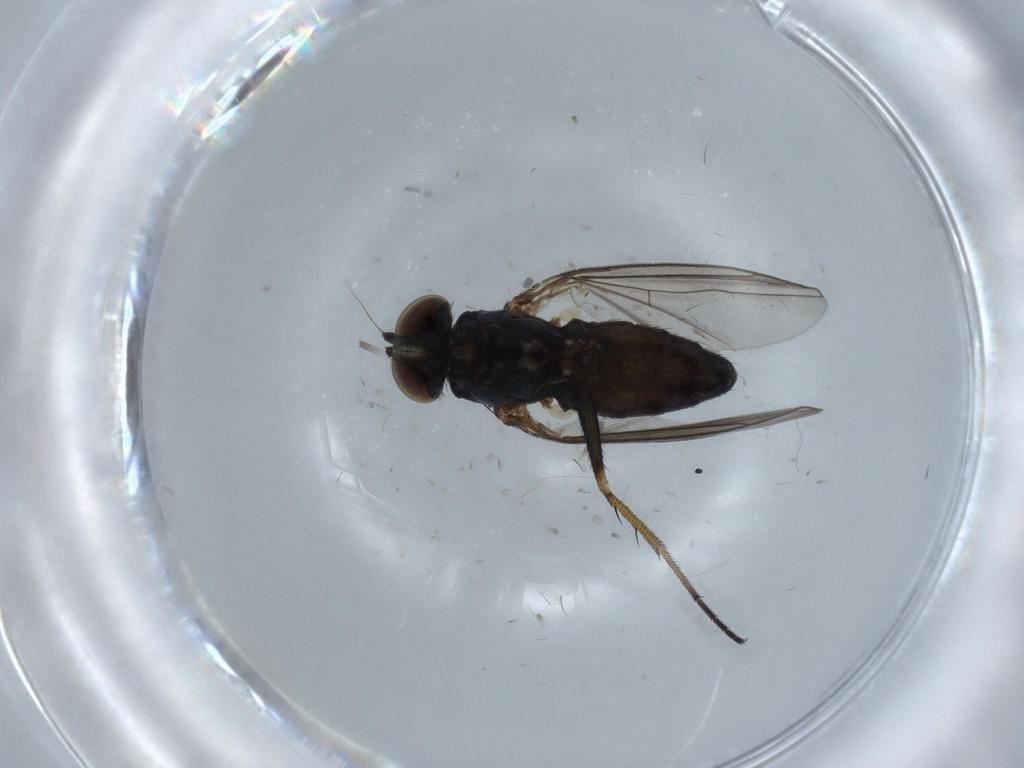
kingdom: Animalia
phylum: Arthropoda
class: Insecta
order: Diptera
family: Dolichopodidae
